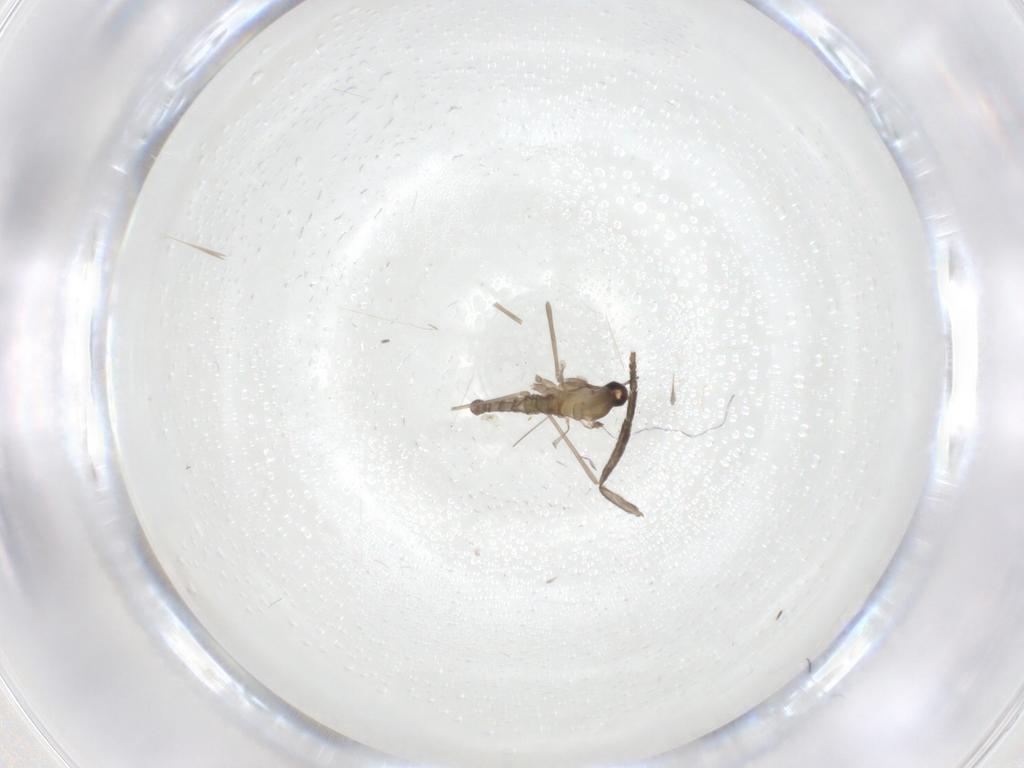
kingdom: Animalia
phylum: Arthropoda
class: Insecta
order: Diptera
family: Psychodidae
